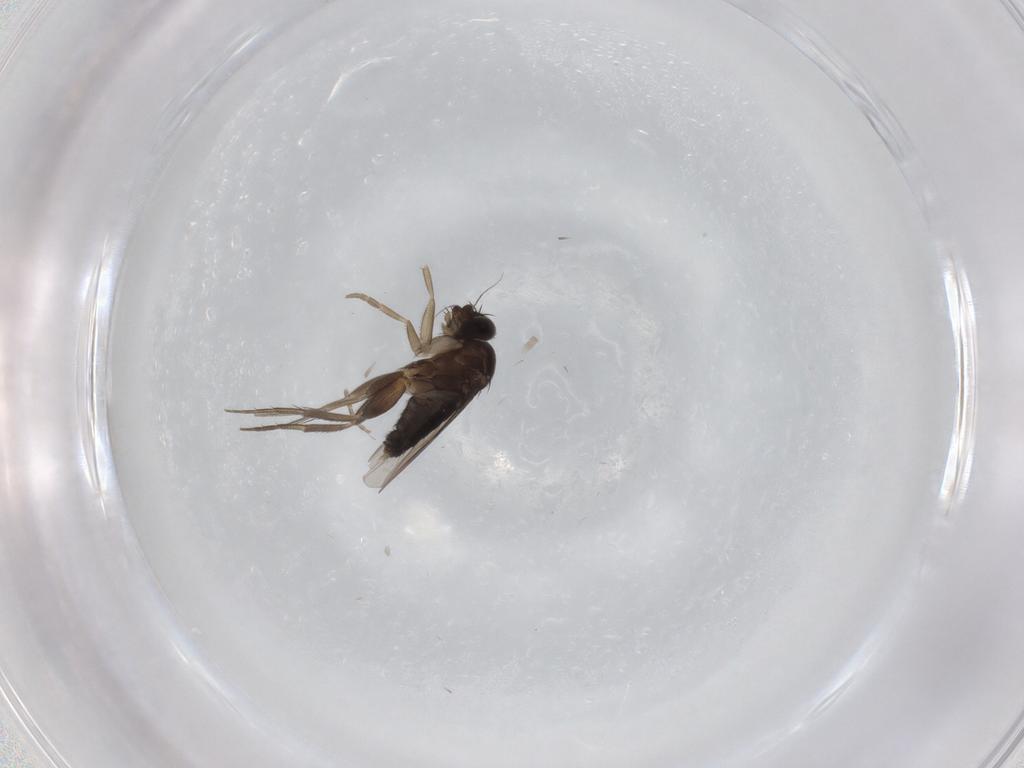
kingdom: Animalia
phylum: Arthropoda
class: Insecta
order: Diptera
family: Phoridae
